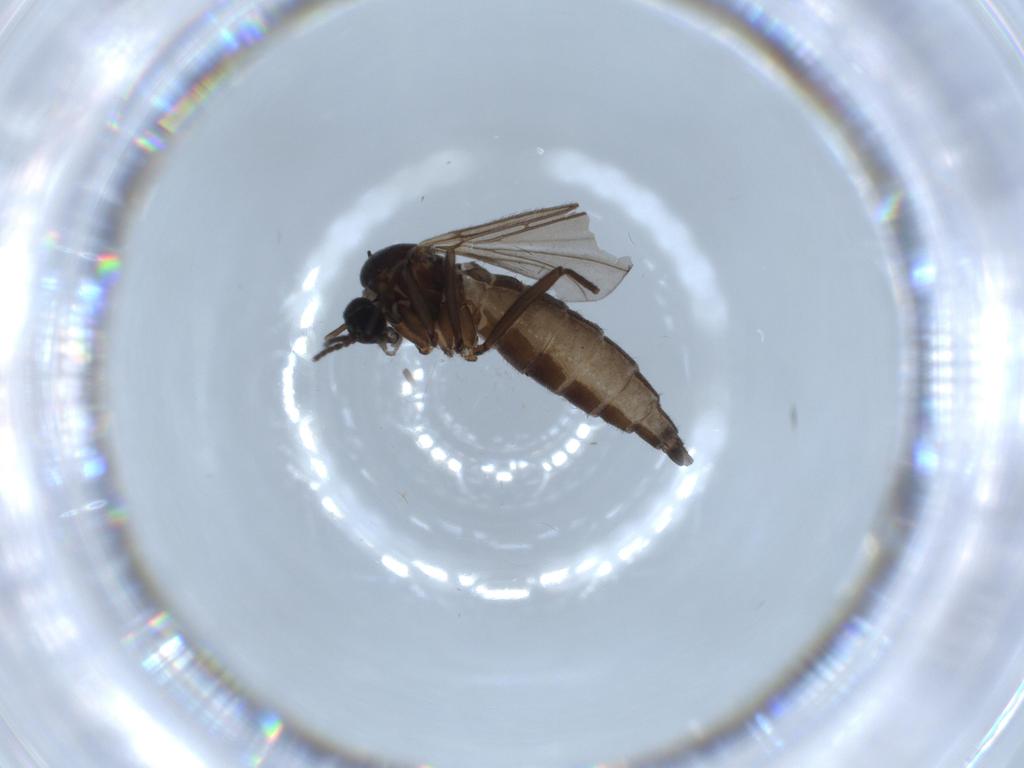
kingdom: Animalia
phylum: Arthropoda
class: Insecta
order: Diptera
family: Sciaridae
